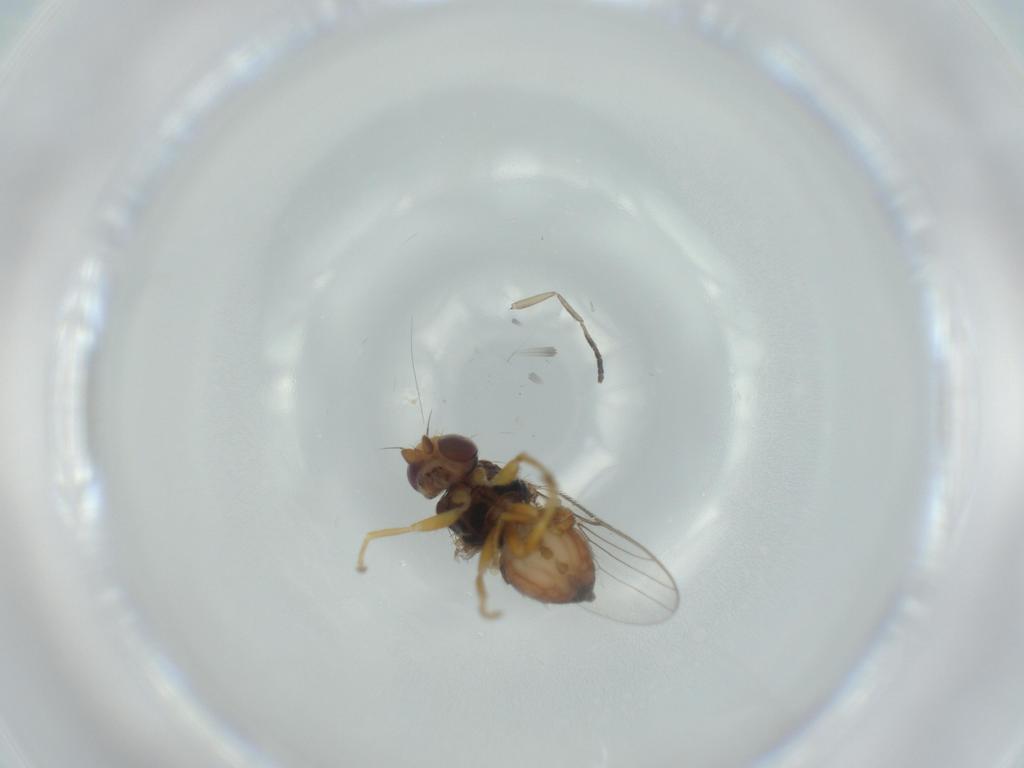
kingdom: Animalia
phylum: Arthropoda
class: Insecta
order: Diptera
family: Chloropidae
